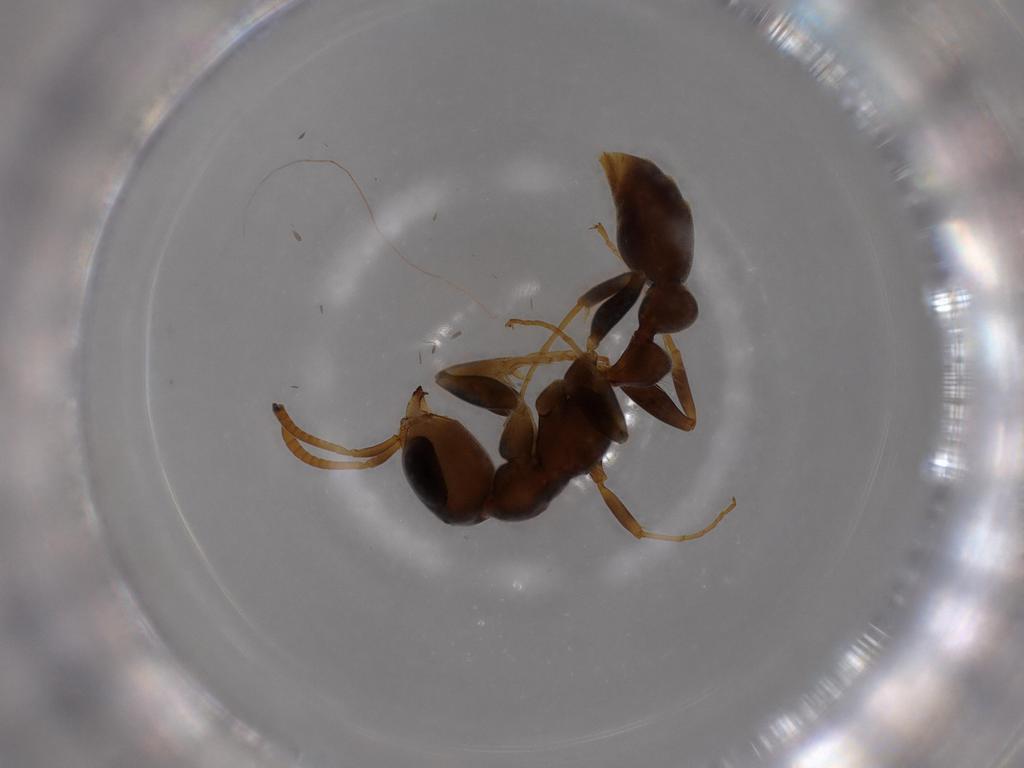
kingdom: Animalia
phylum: Arthropoda
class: Insecta
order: Hymenoptera
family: Formicidae
